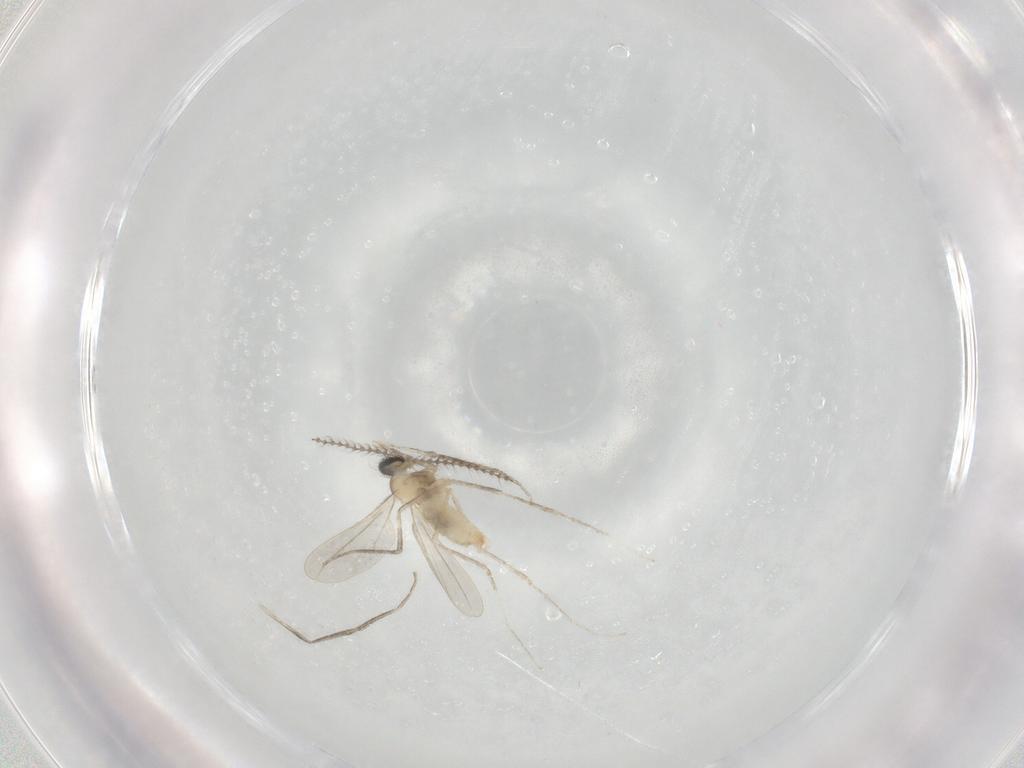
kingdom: Animalia
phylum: Arthropoda
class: Insecta
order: Diptera
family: Cecidomyiidae
